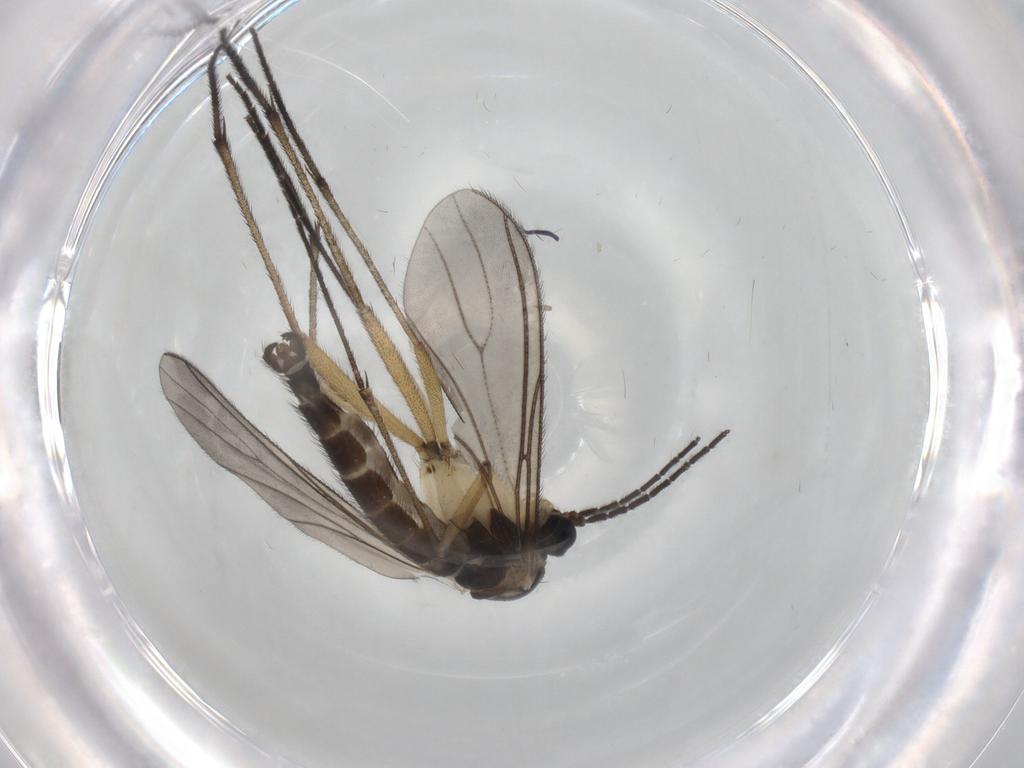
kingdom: Animalia
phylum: Arthropoda
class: Insecta
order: Diptera
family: Sciaridae
